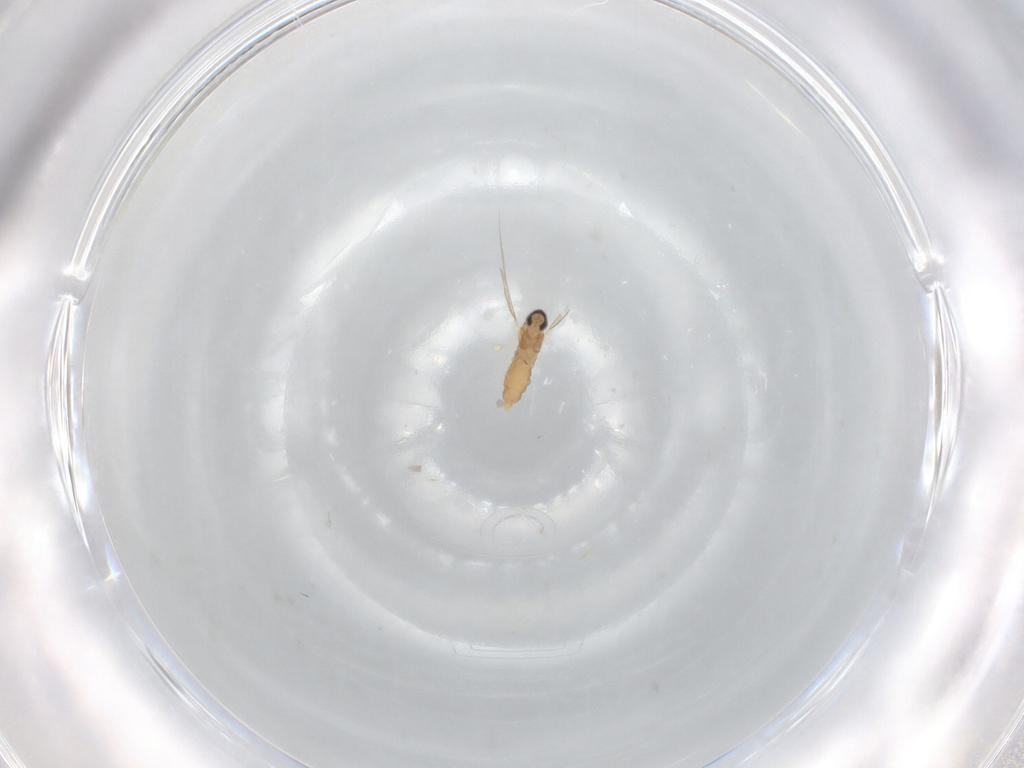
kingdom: Animalia
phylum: Arthropoda
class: Insecta
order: Diptera
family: Cecidomyiidae
